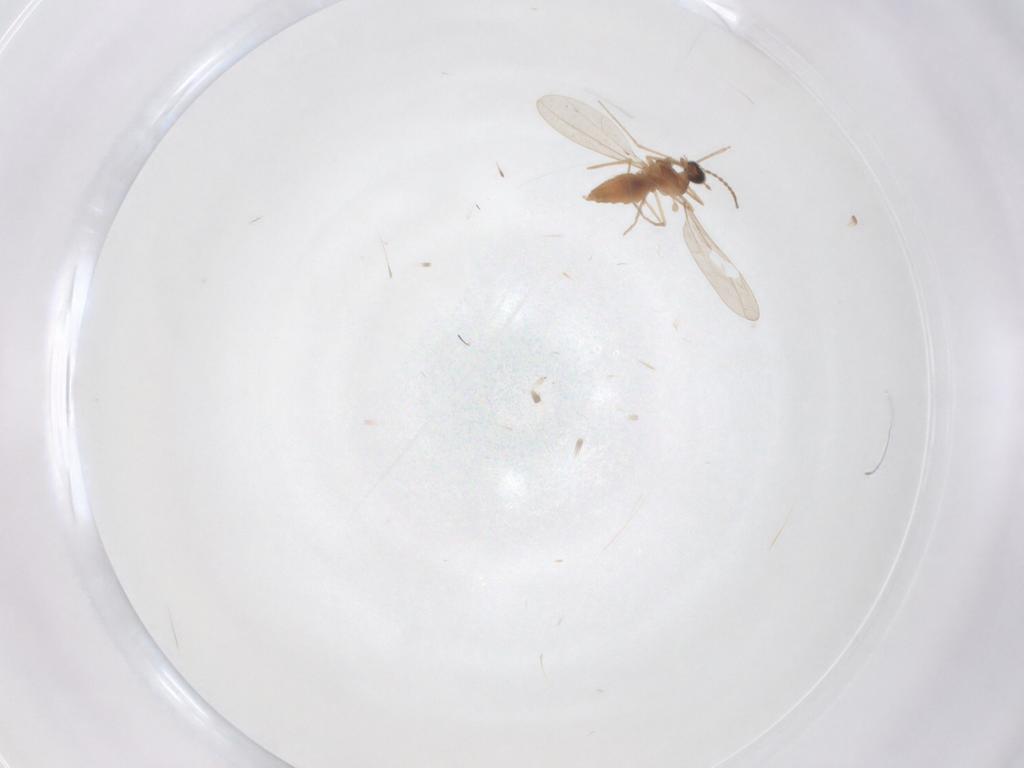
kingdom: Animalia
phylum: Arthropoda
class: Insecta
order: Diptera
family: Cecidomyiidae
